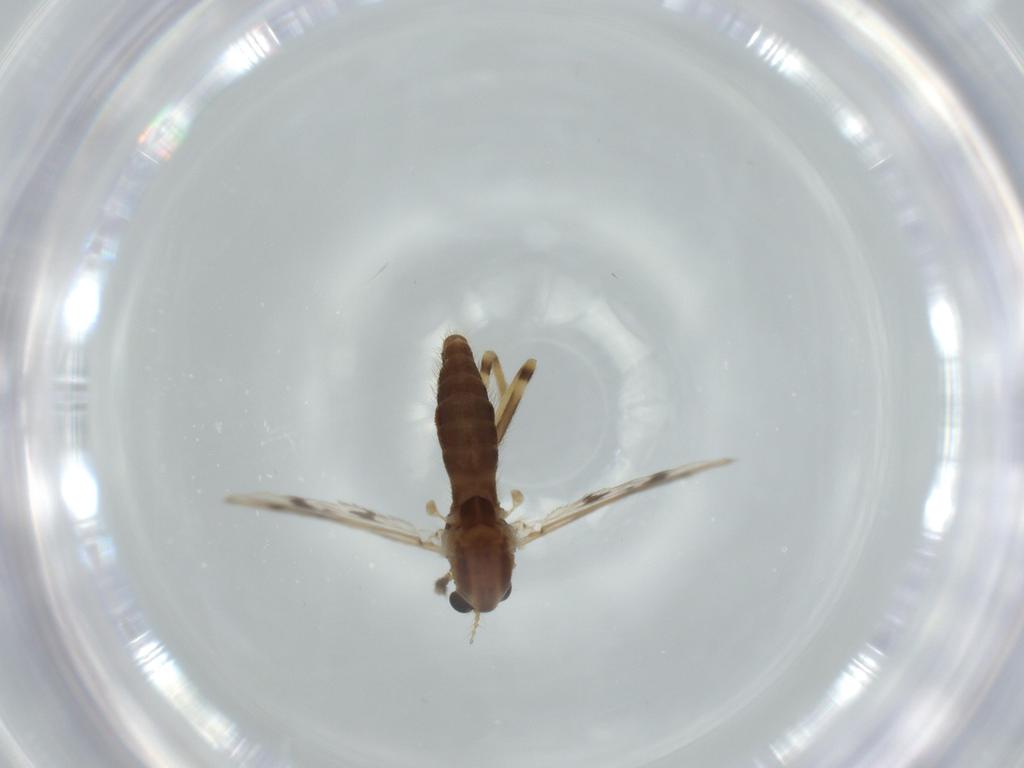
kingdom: Animalia
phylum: Arthropoda
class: Insecta
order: Diptera
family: Chironomidae
